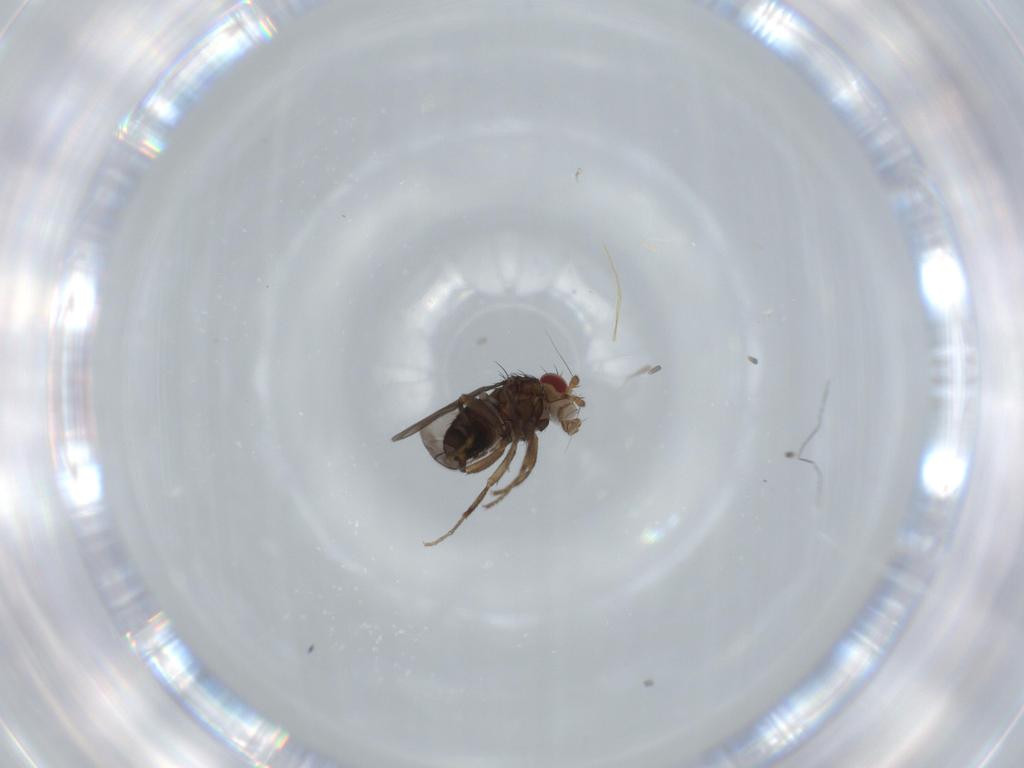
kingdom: Animalia
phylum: Arthropoda
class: Insecta
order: Diptera
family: Sphaeroceridae
